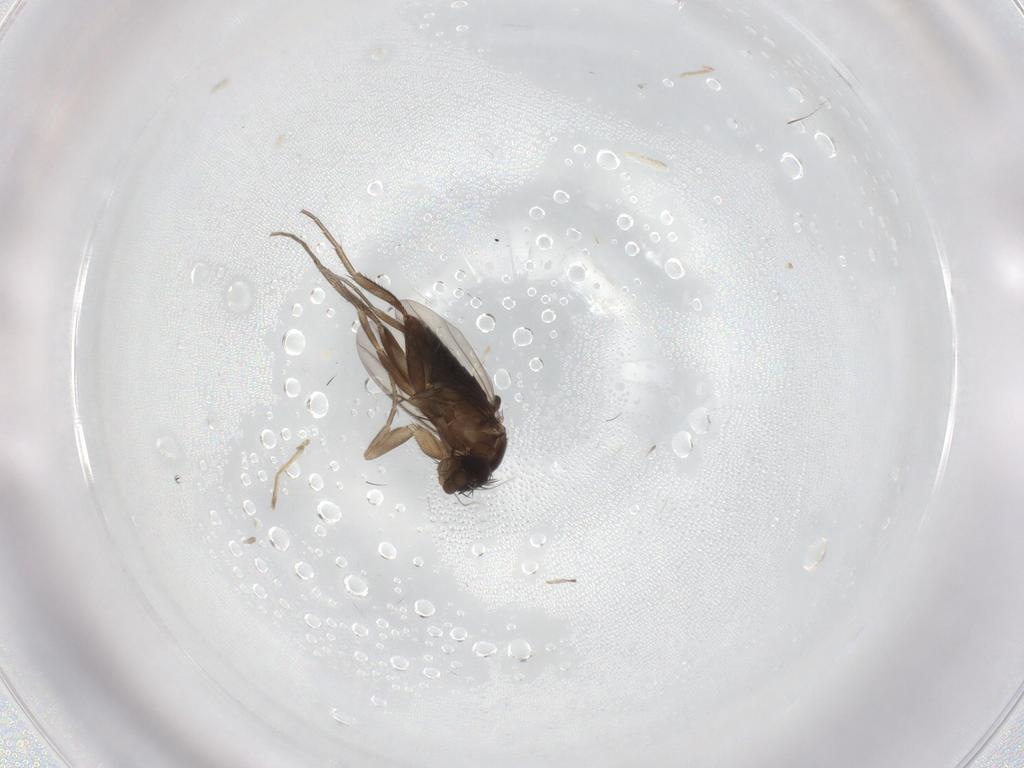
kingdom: Animalia
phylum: Arthropoda
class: Insecta
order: Diptera
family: Phoridae
